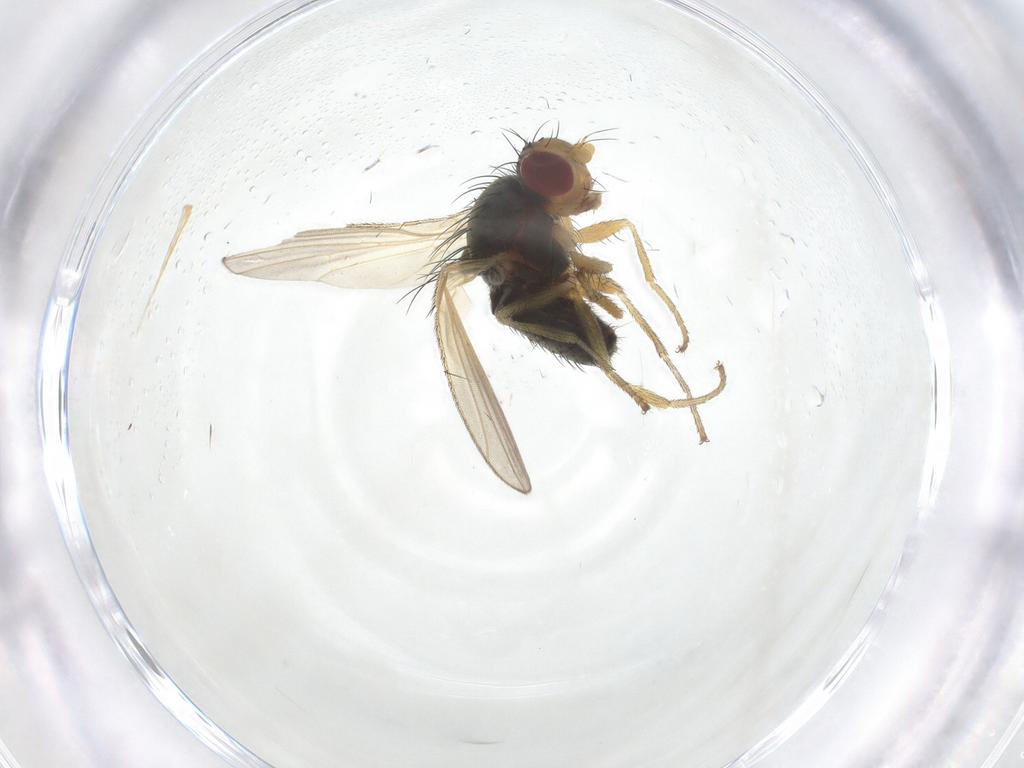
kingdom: Animalia
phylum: Arthropoda
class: Insecta
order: Diptera
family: Heleomyzidae
